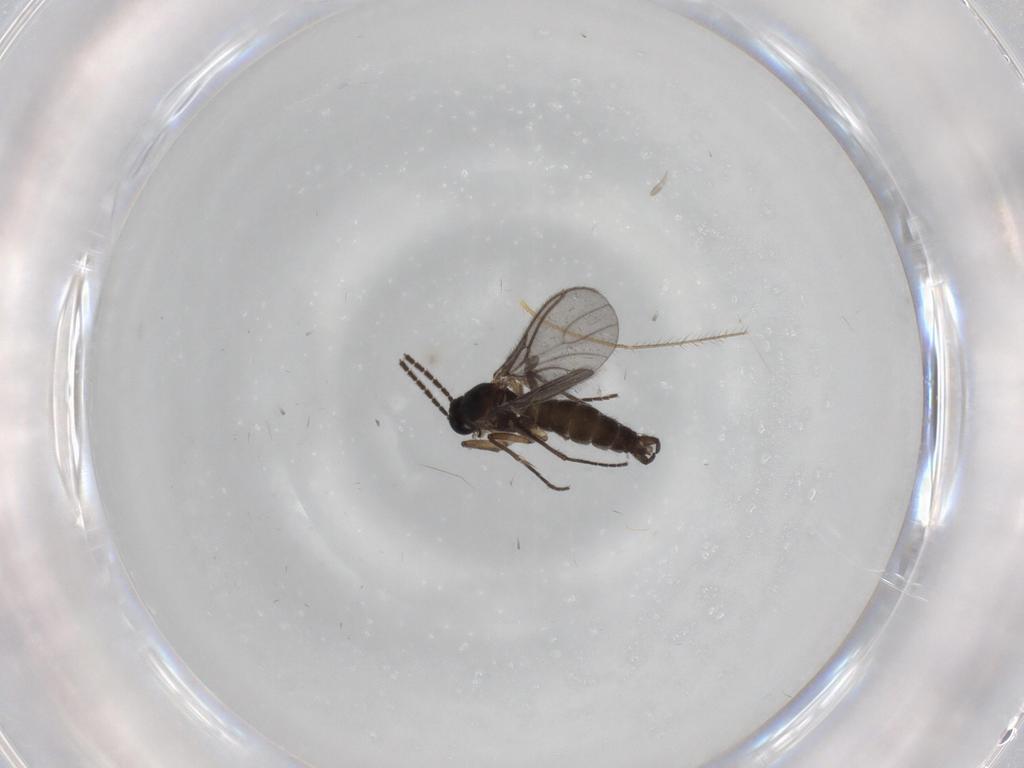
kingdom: Animalia
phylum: Arthropoda
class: Insecta
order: Diptera
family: Sciaridae
